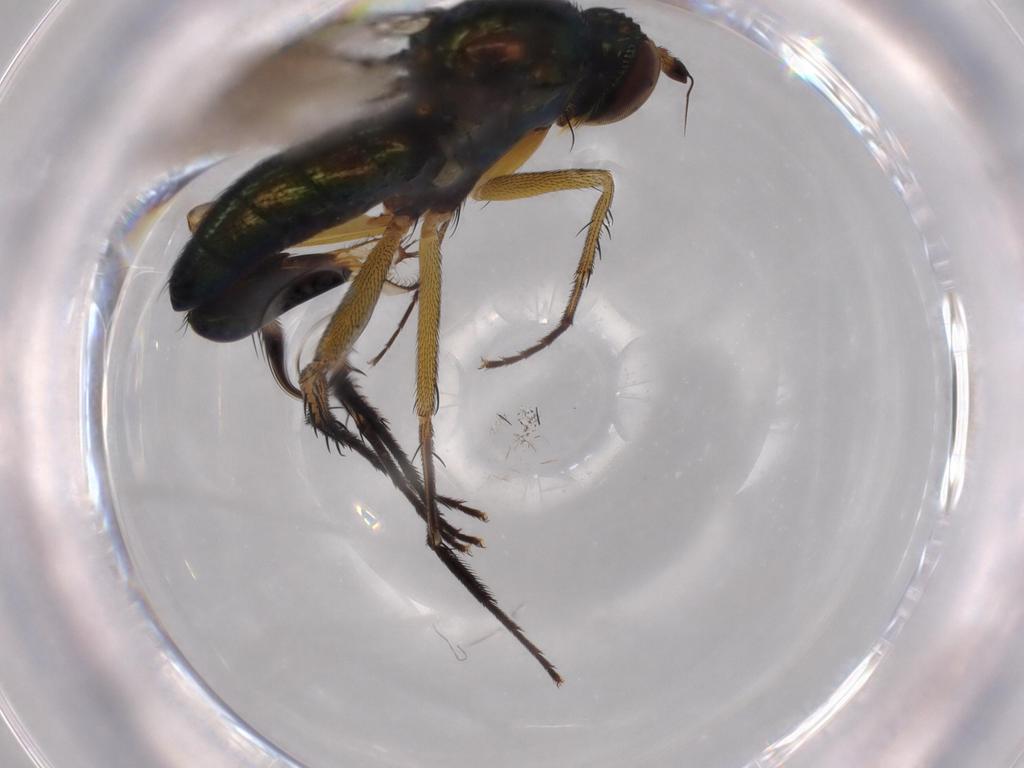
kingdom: Animalia
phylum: Arthropoda
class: Insecta
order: Diptera
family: Dolichopodidae
